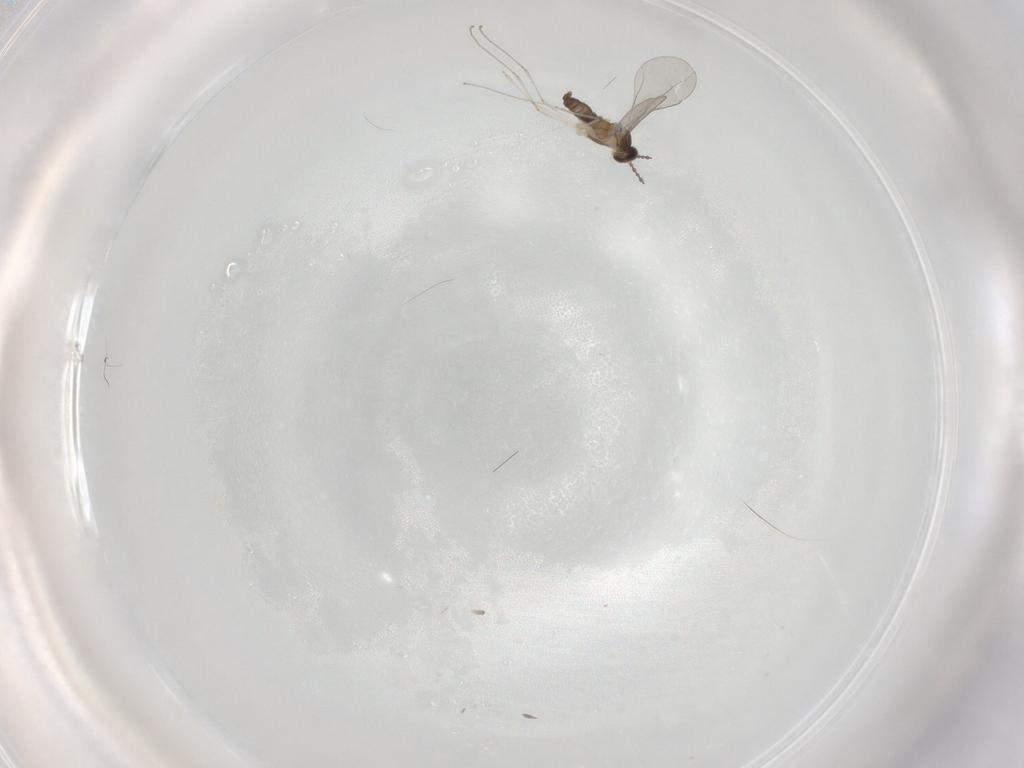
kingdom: Animalia
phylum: Arthropoda
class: Insecta
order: Diptera
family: Cecidomyiidae
